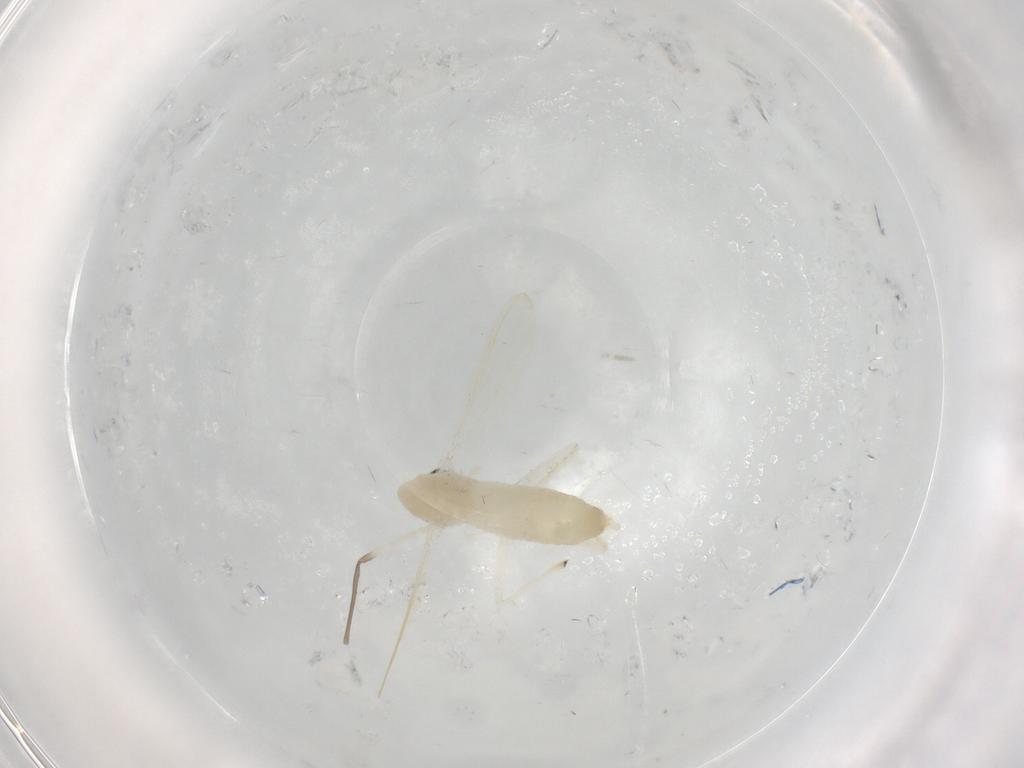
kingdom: Animalia
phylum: Arthropoda
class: Insecta
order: Diptera
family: Chironomidae
